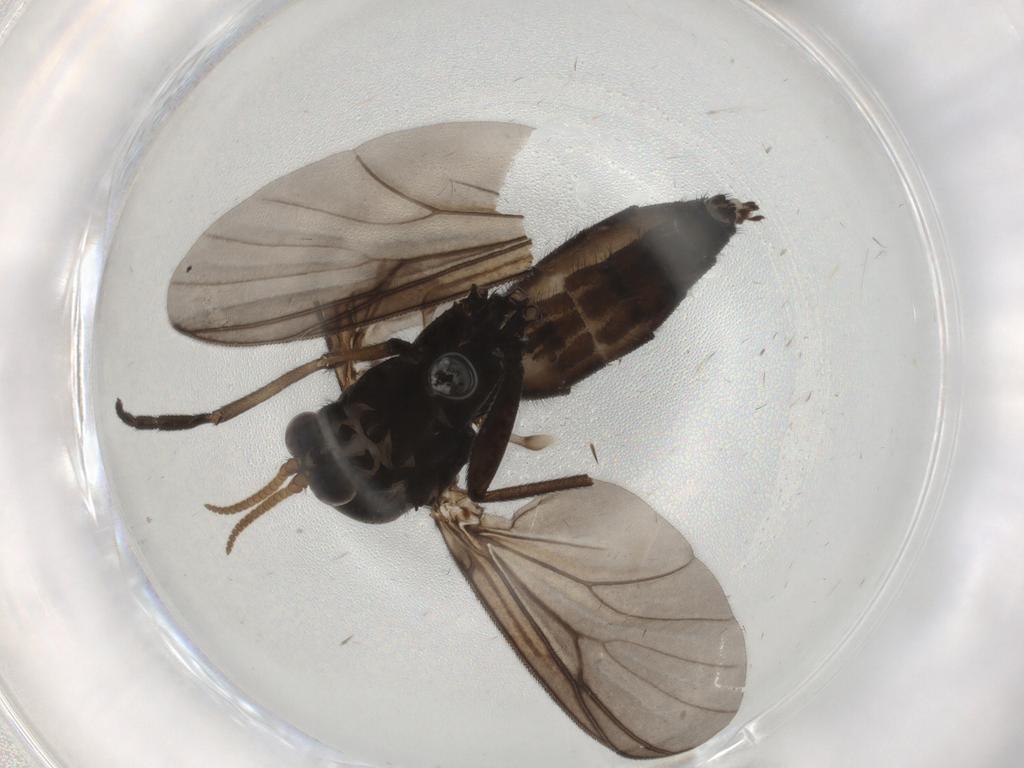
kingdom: Animalia
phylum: Arthropoda
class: Insecta
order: Diptera
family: Mycetophilidae
